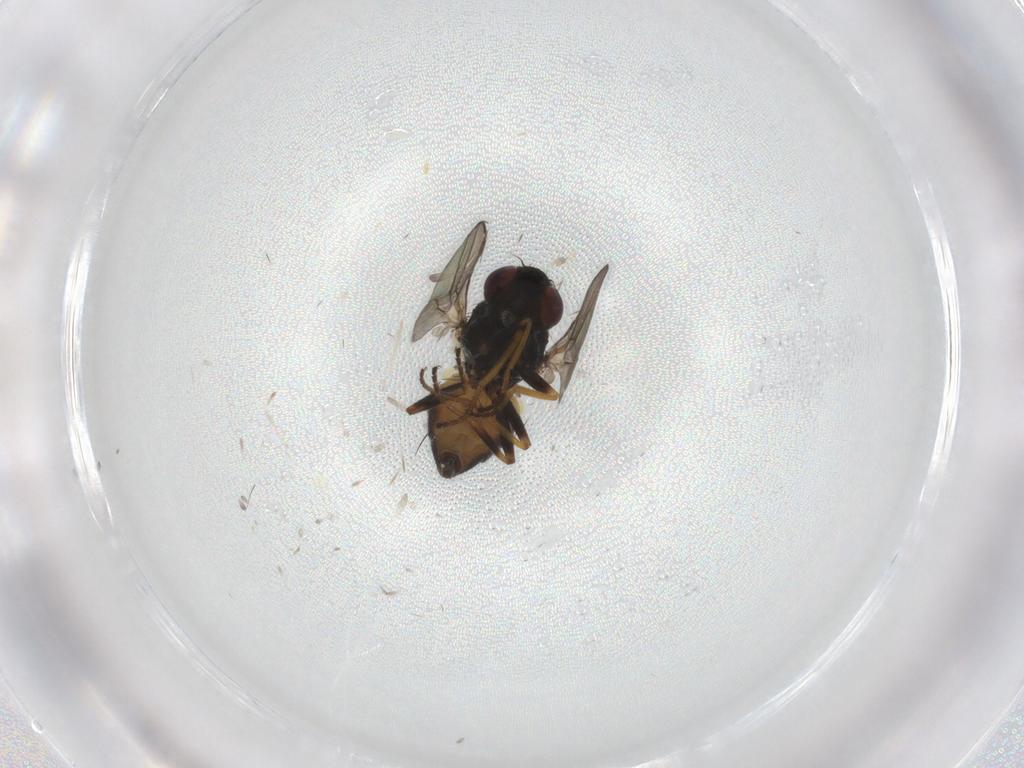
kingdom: Animalia
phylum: Arthropoda
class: Insecta
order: Diptera
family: Chloropidae
